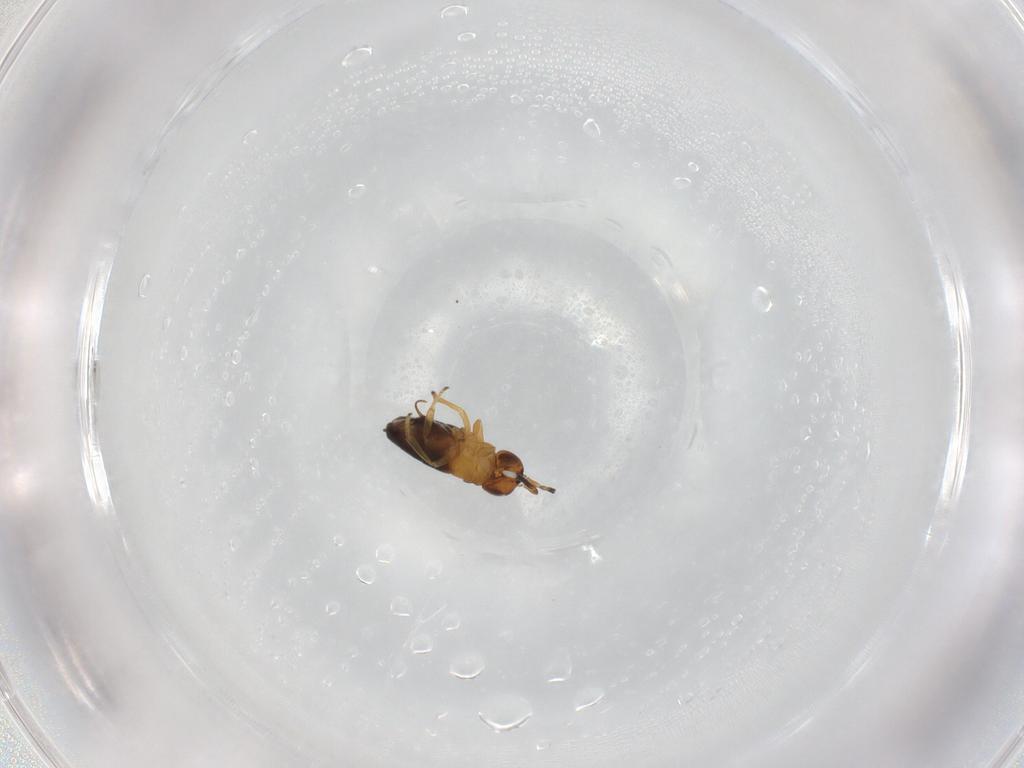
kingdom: Animalia
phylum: Arthropoda
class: Insecta
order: Hymenoptera
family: Encyrtidae
